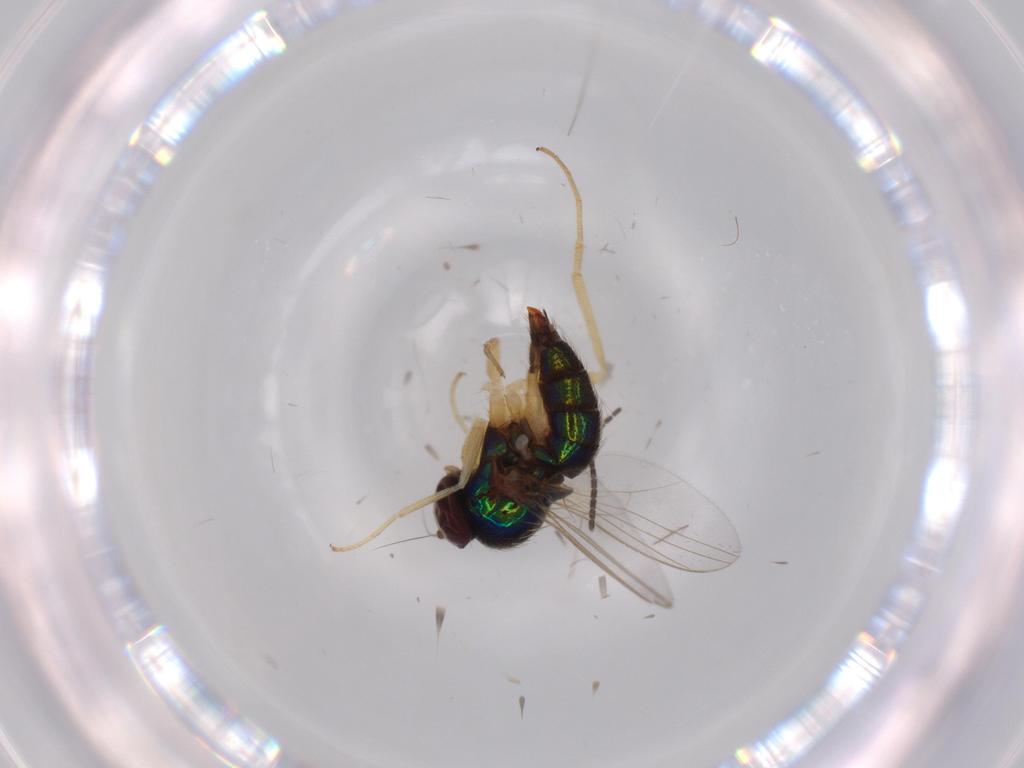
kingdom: Animalia
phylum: Arthropoda
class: Insecta
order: Diptera
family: Dolichopodidae
